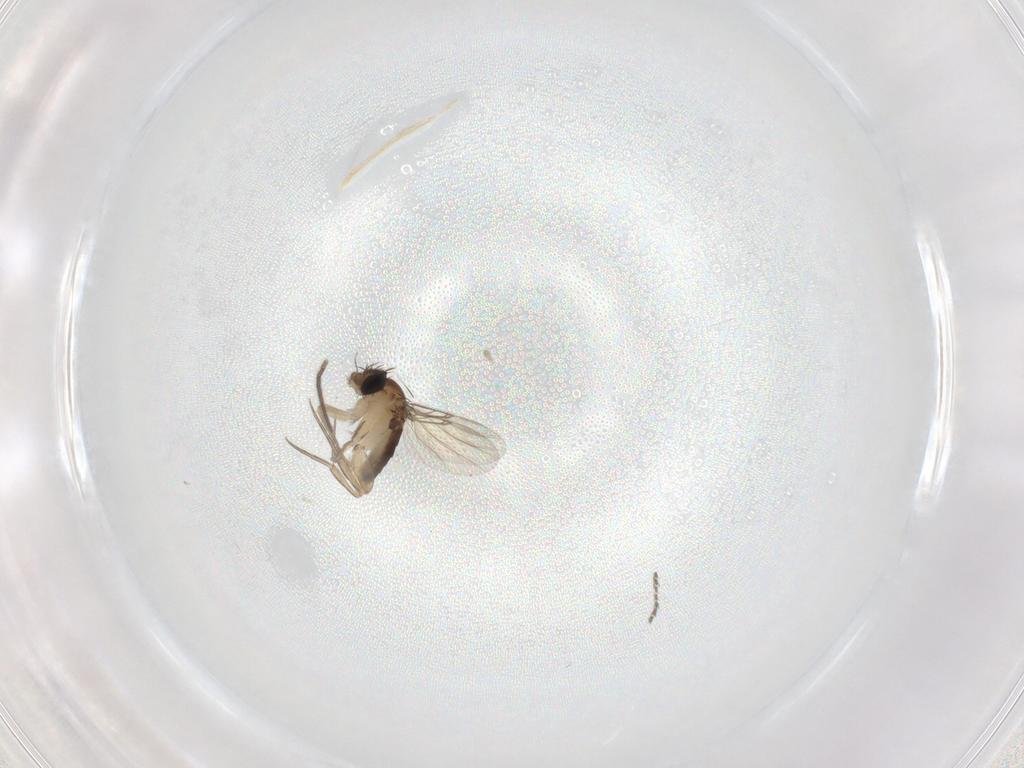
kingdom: Animalia
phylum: Arthropoda
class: Insecta
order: Diptera
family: Phoridae
